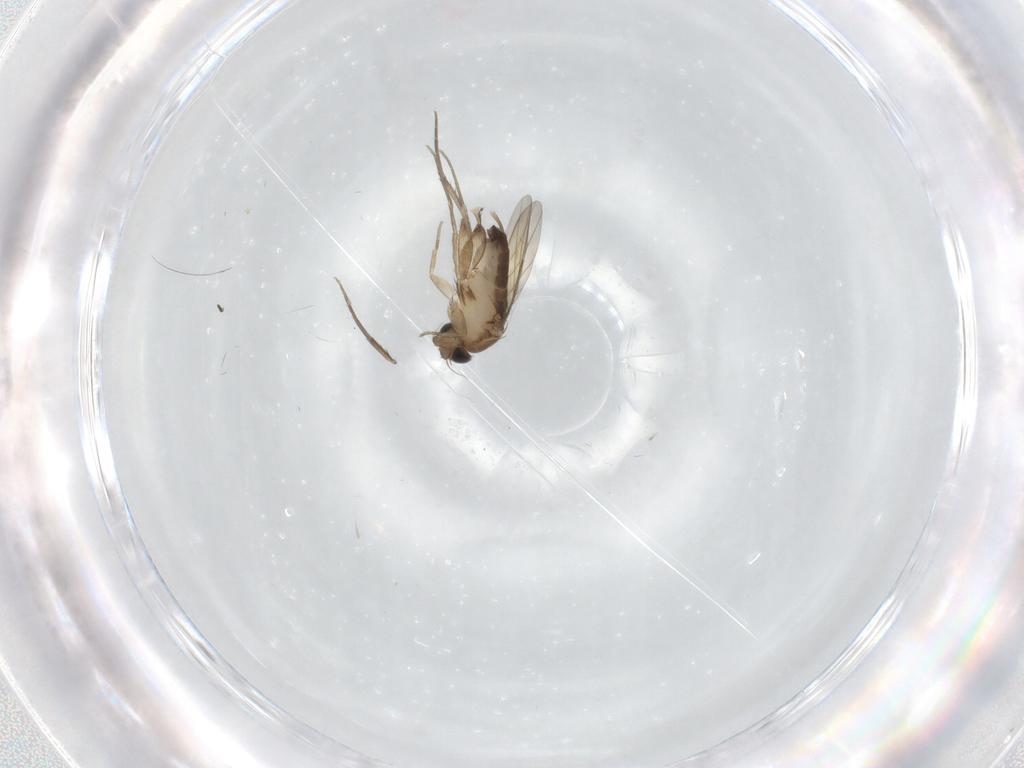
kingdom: Animalia
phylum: Arthropoda
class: Insecta
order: Diptera
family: Phoridae
